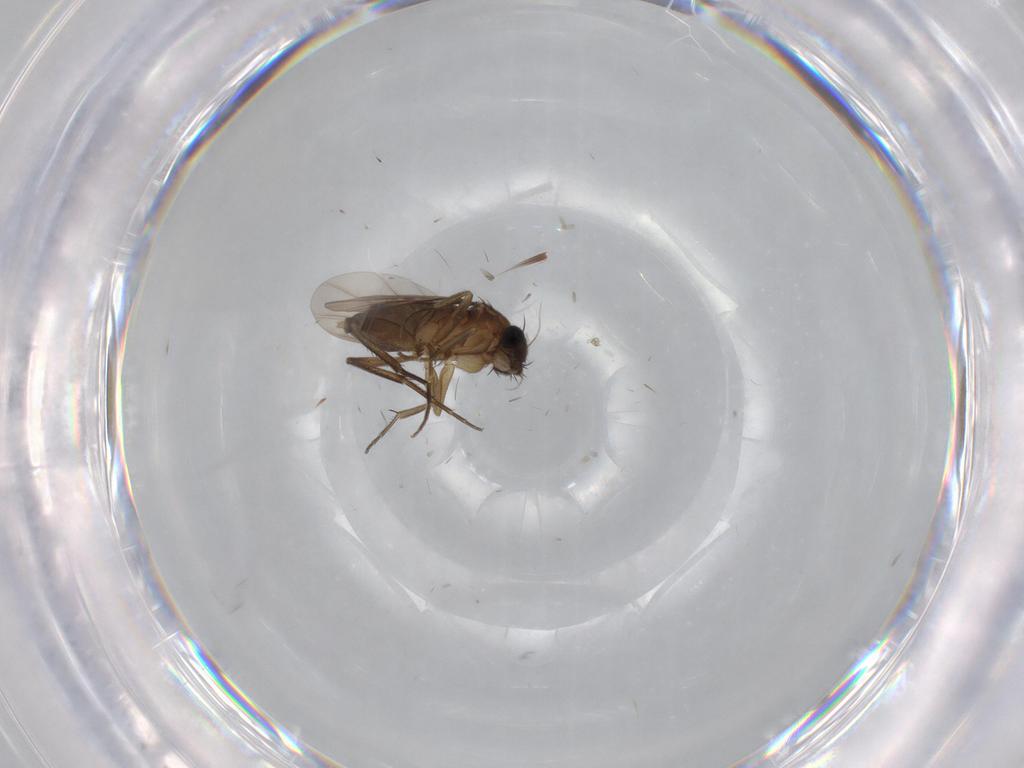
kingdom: Animalia
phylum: Arthropoda
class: Insecta
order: Diptera
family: Phoridae
